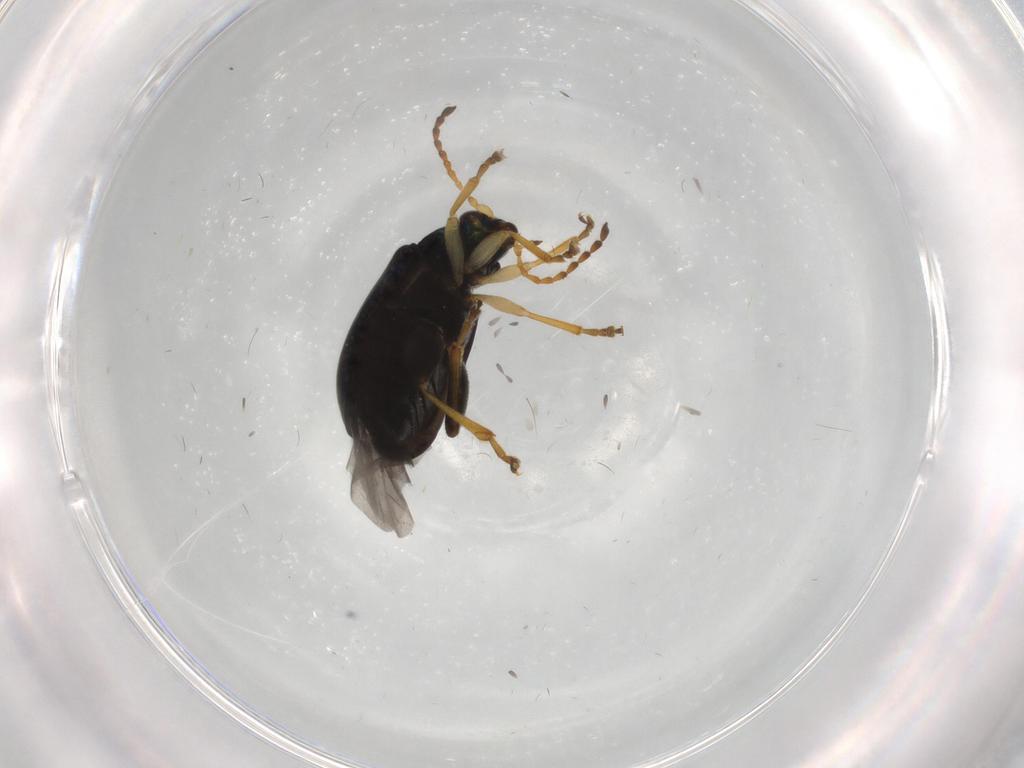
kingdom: Animalia
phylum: Arthropoda
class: Insecta
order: Coleoptera
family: Chrysomelidae
